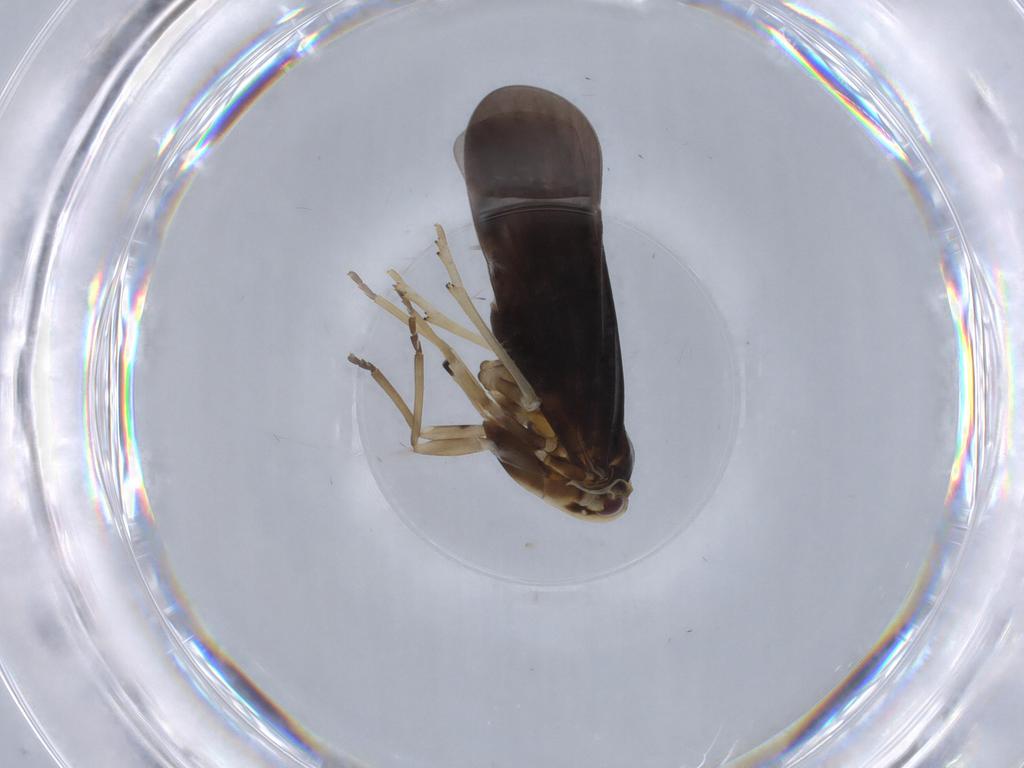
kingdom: Animalia
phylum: Arthropoda
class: Insecta
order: Hemiptera
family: Derbidae
